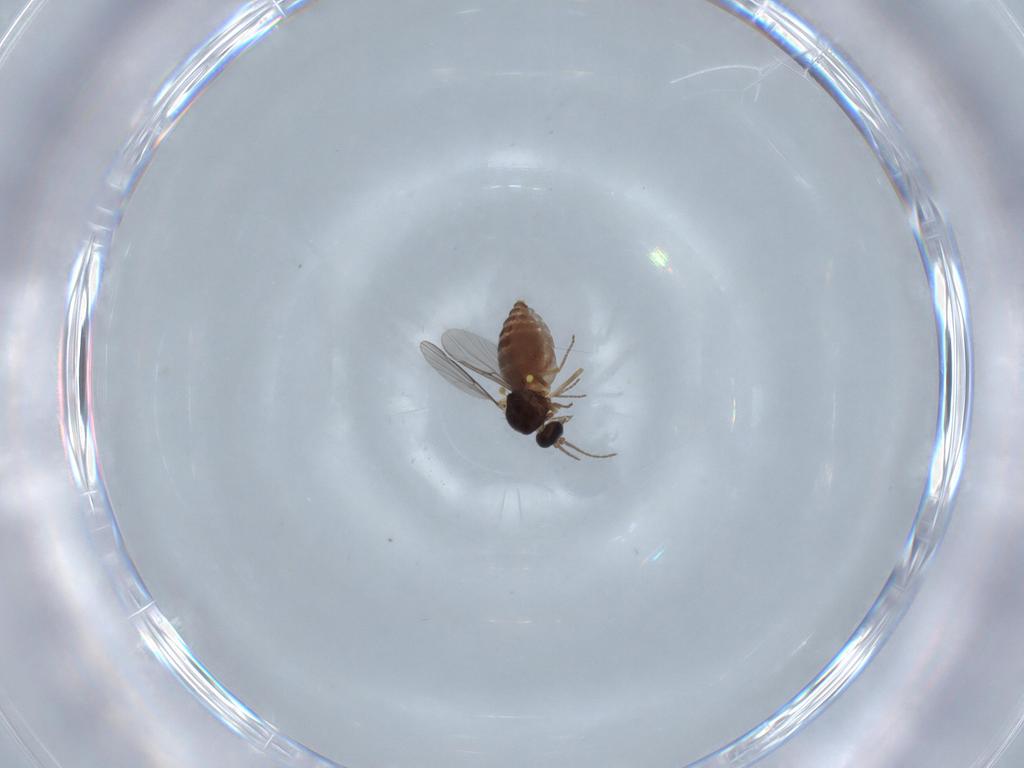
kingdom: Animalia
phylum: Arthropoda
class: Insecta
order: Diptera
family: Ceratopogonidae
